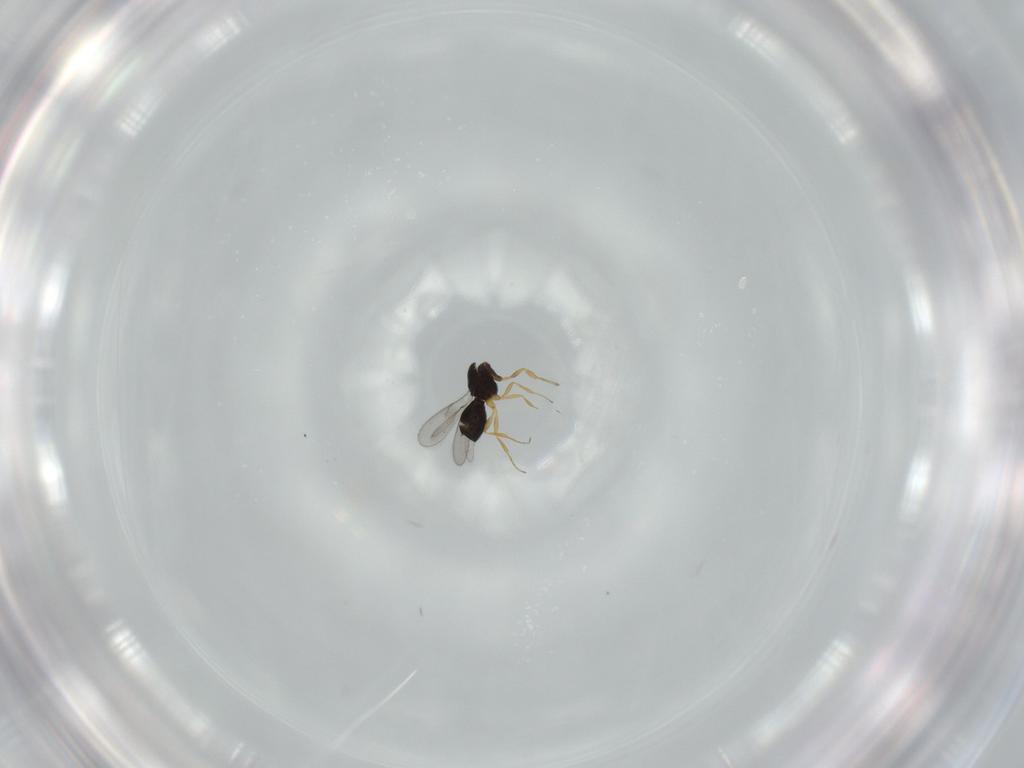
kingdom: Animalia
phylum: Arthropoda
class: Insecta
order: Hymenoptera
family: Scelionidae
